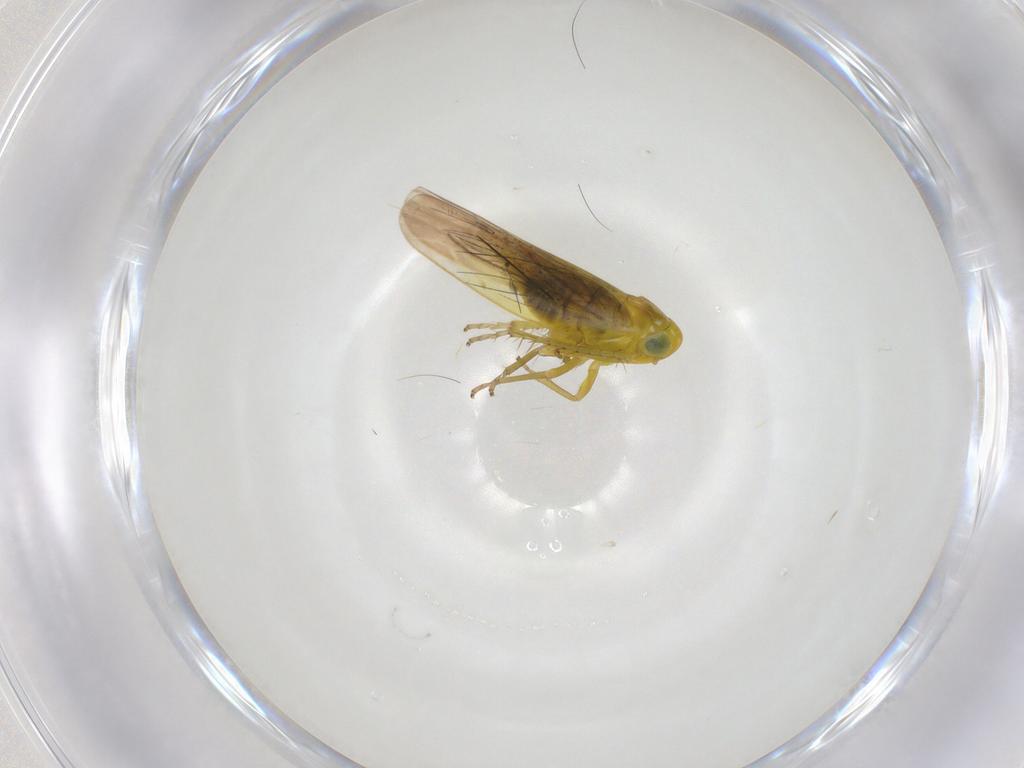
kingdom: Animalia
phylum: Arthropoda
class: Insecta
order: Hemiptera
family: Cicadellidae
